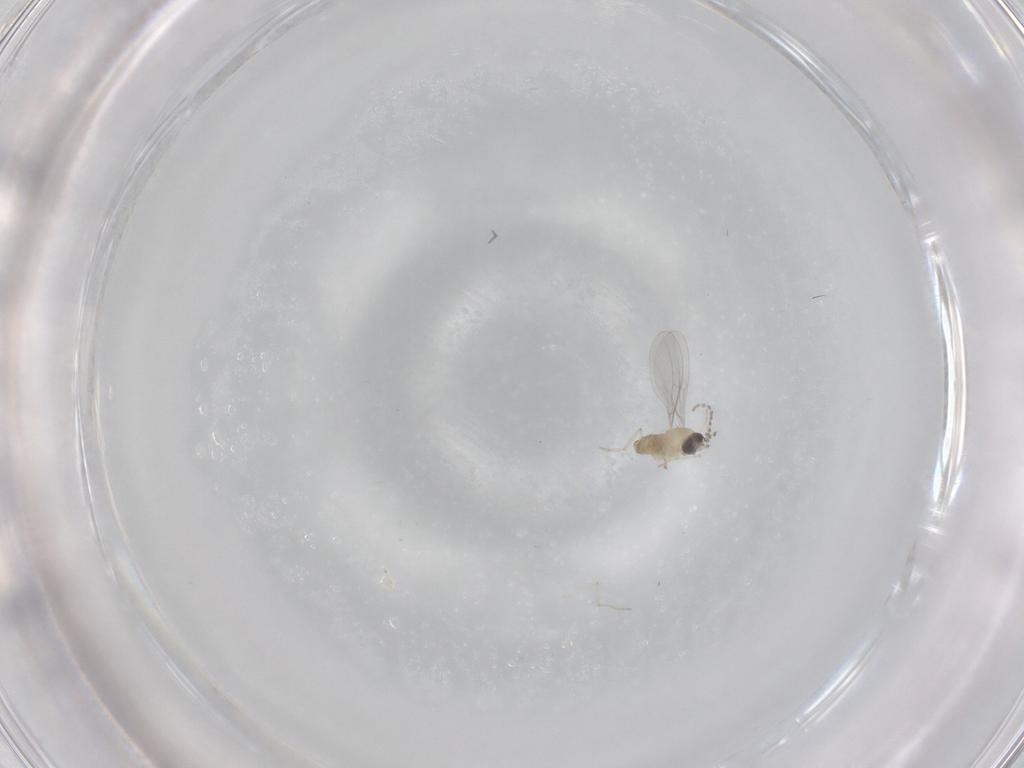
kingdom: Animalia
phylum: Arthropoda
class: Insecta
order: Diptera
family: Cecidomyiidae
